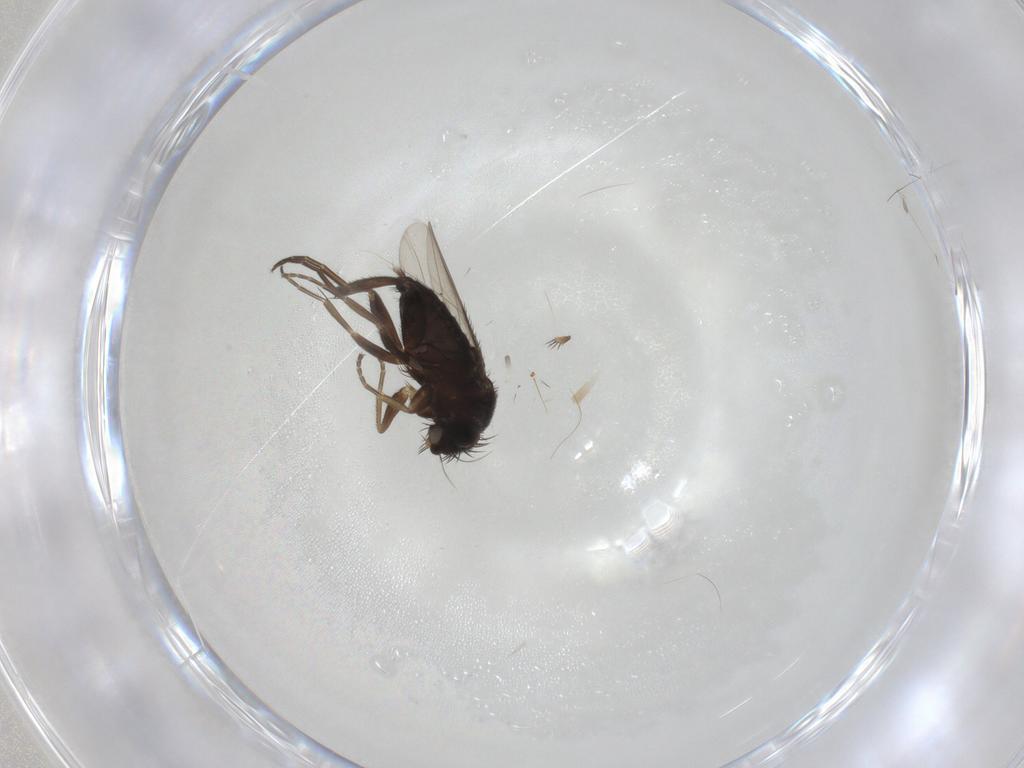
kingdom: Animalia
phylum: Arthropoda
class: Insecta
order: Diptera
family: Phoridae
